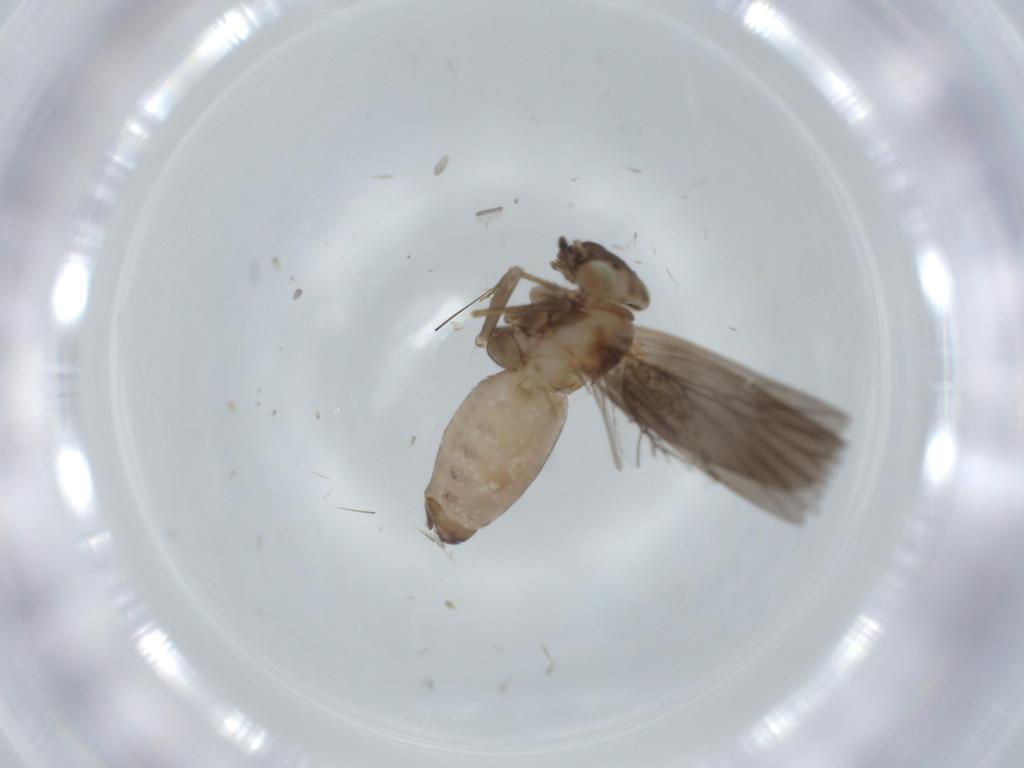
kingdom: Animalia
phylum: Arthropoda
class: Insecta
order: Psocodea
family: Lepidopsocidae
